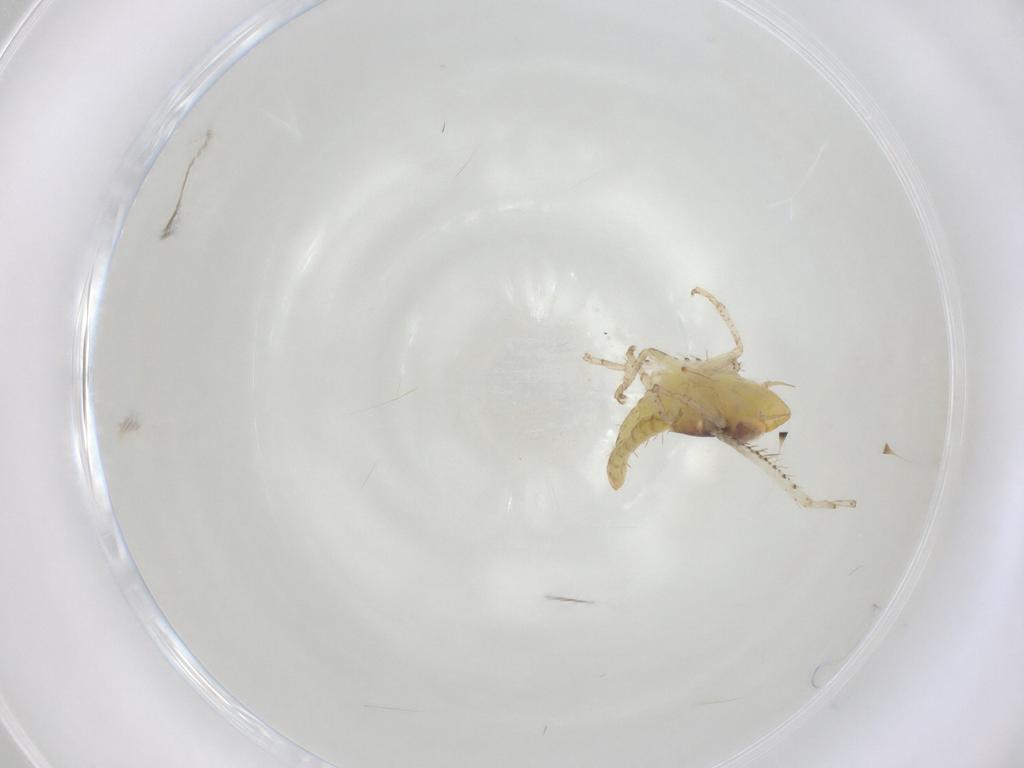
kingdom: Animalia
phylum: Arthropoda
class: Insecta
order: Hemiptera
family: Cicadellidae
